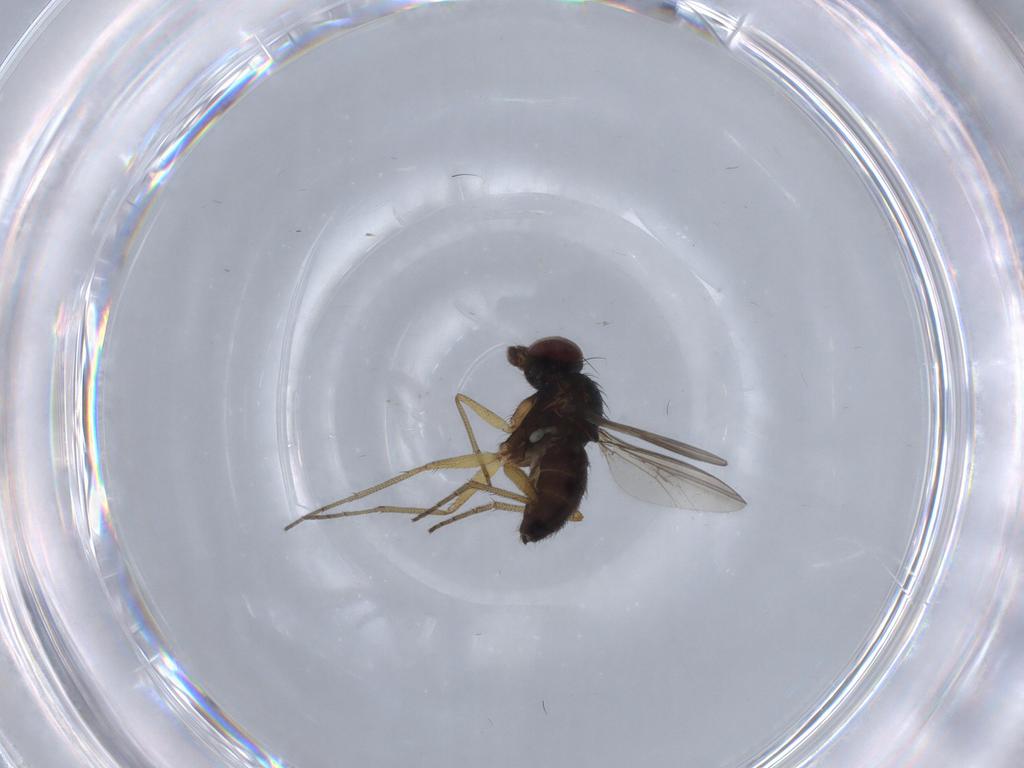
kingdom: Animalia
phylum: Arthropoda
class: Insecta
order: Diptera
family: Dolichopodidae
